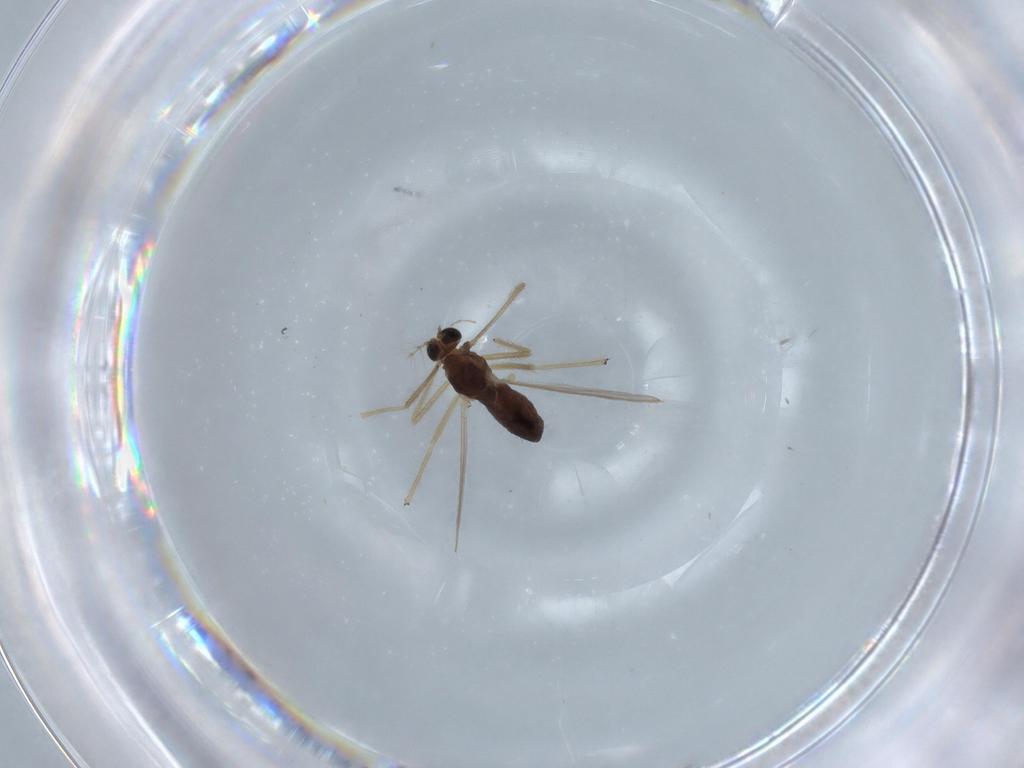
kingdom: Animalia
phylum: Arthropoda
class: Insecta
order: Diptera
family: Chironomidae
